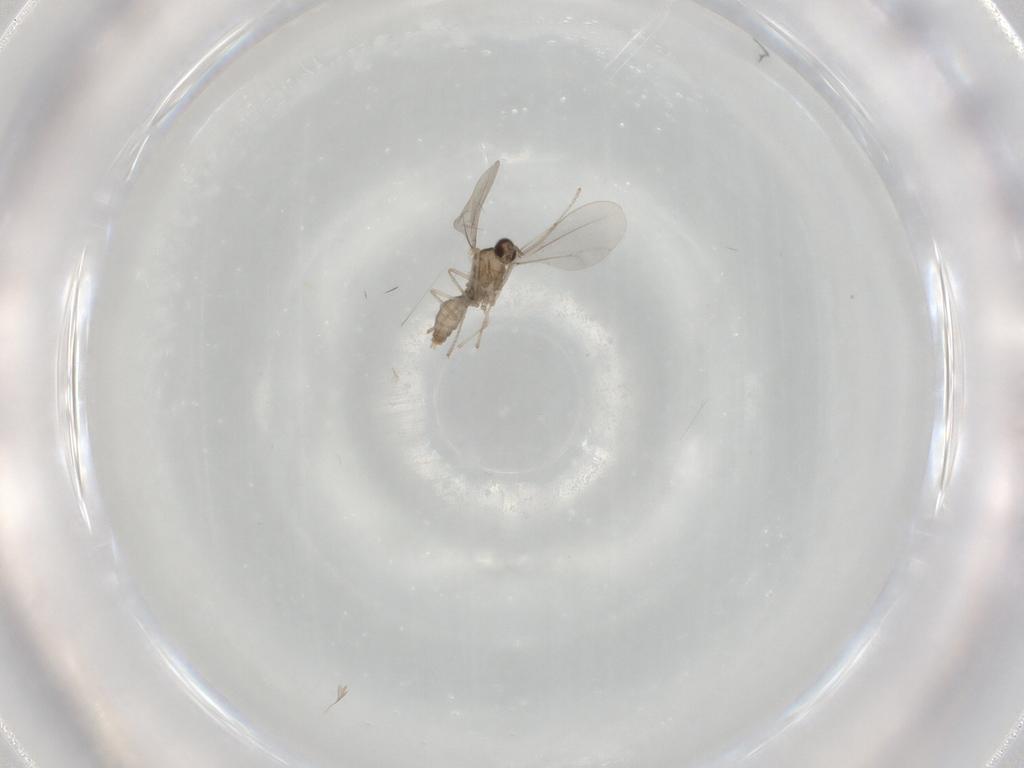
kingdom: Animalia
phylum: Arthropoda
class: Insecta
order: Diptera
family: Cecidomyiidae
